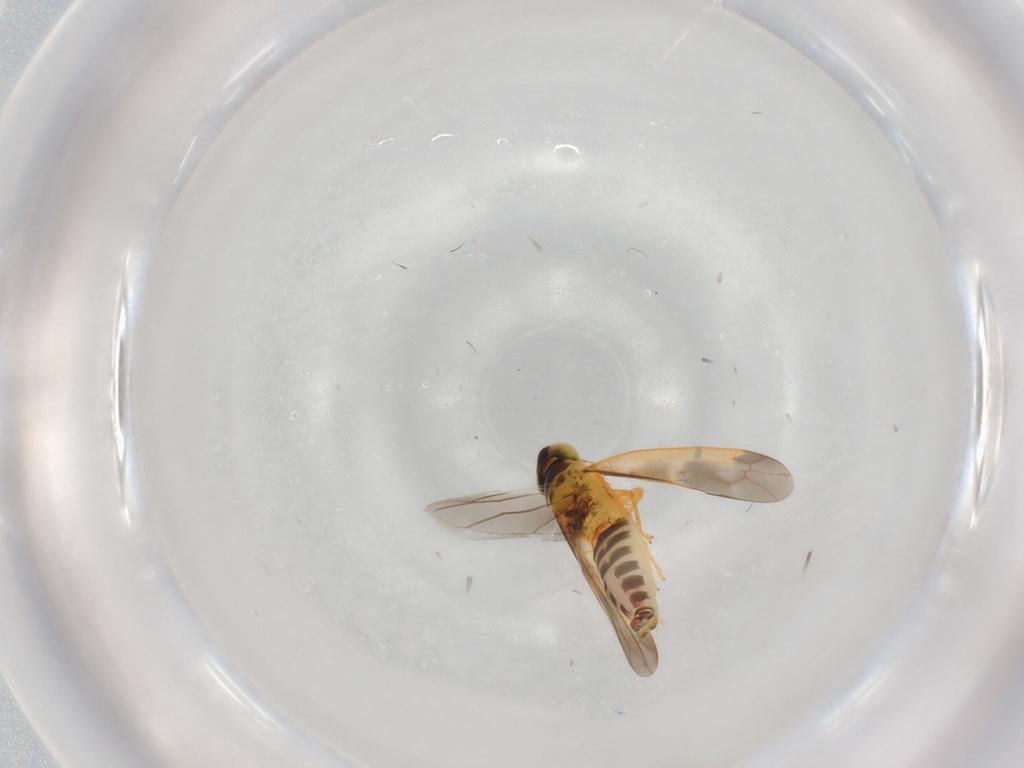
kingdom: Animalia
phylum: Arthropoda
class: Insecta
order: Hemiptera
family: Cicadellidae
